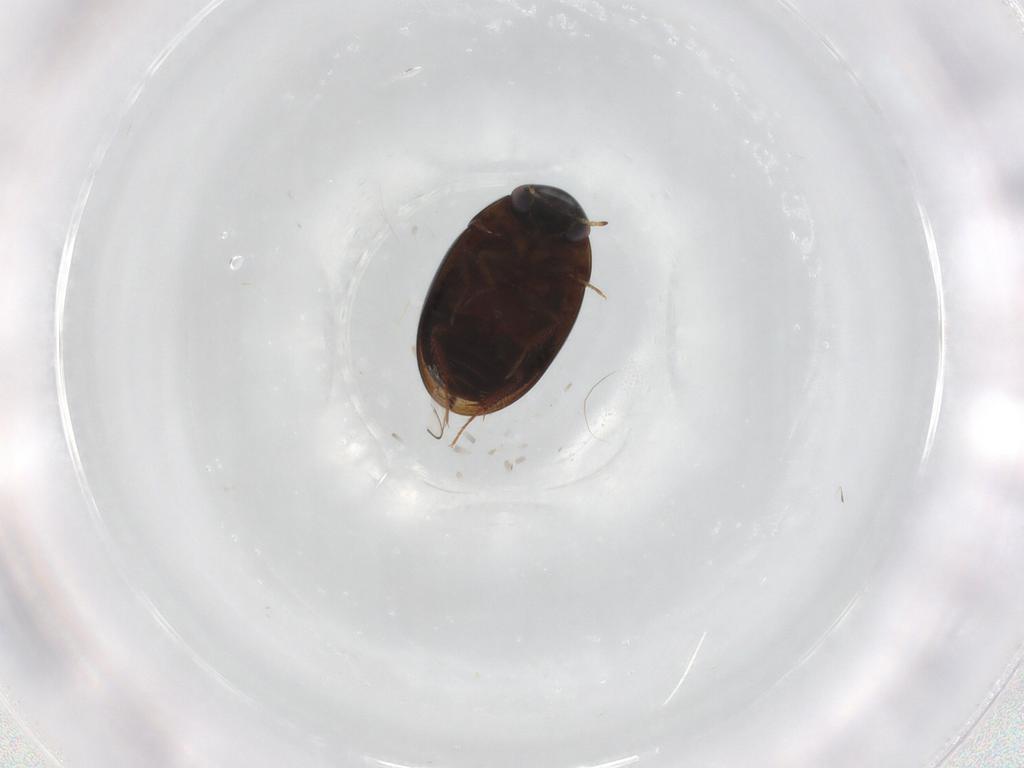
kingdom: Animalia
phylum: Arthropoda
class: Insecta
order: Coleoptera
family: Hydrophilidae
